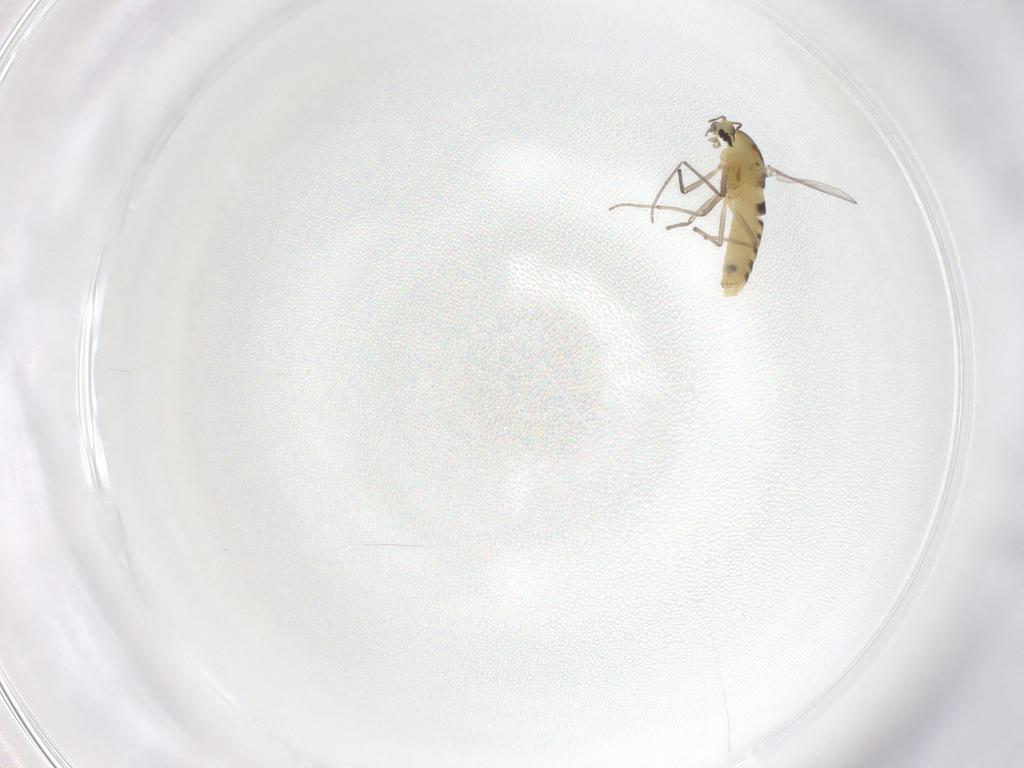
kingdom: Animalia
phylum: Arthropoda
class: Insecta
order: Diptera
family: Chironomidae
